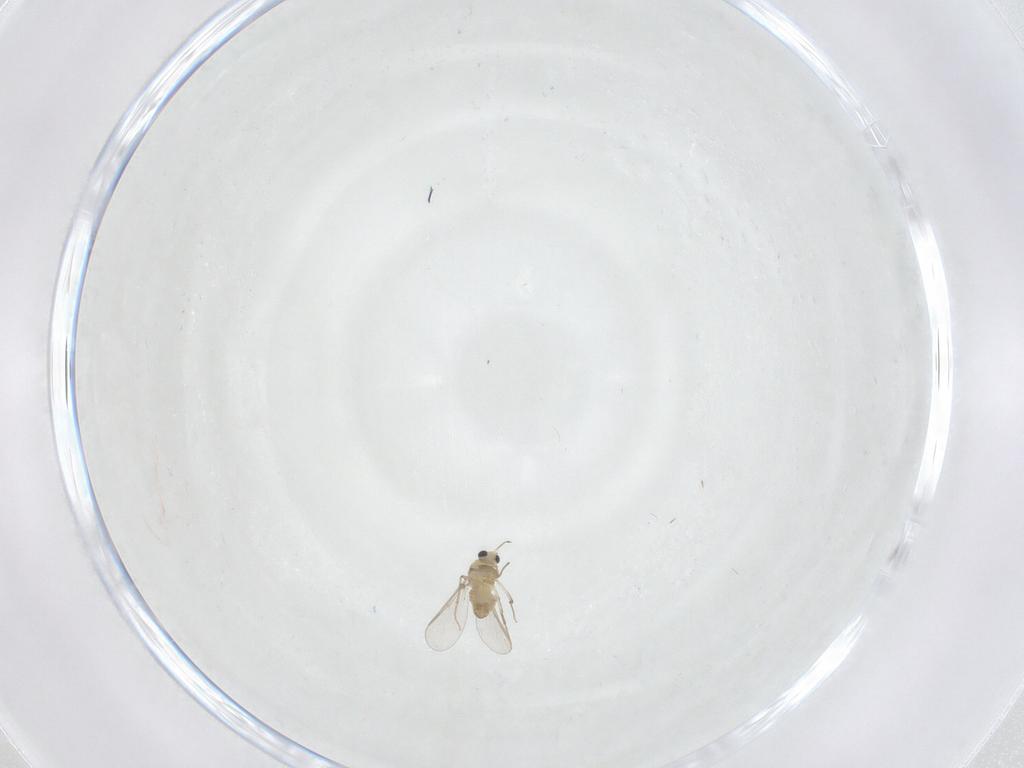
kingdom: Animalia
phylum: Arthropoda
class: Insecta
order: Diptera
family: Chironomidae
